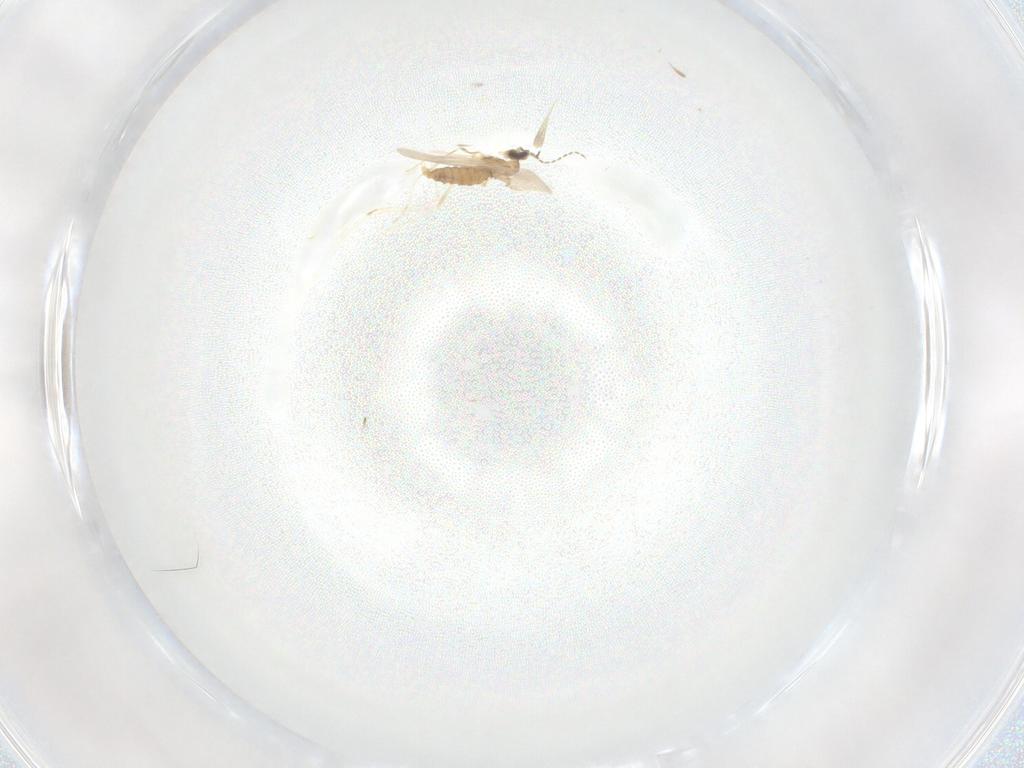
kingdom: Animalia
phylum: Arthropoda
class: Insecta
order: Diptera
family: Cecidomyiidae
